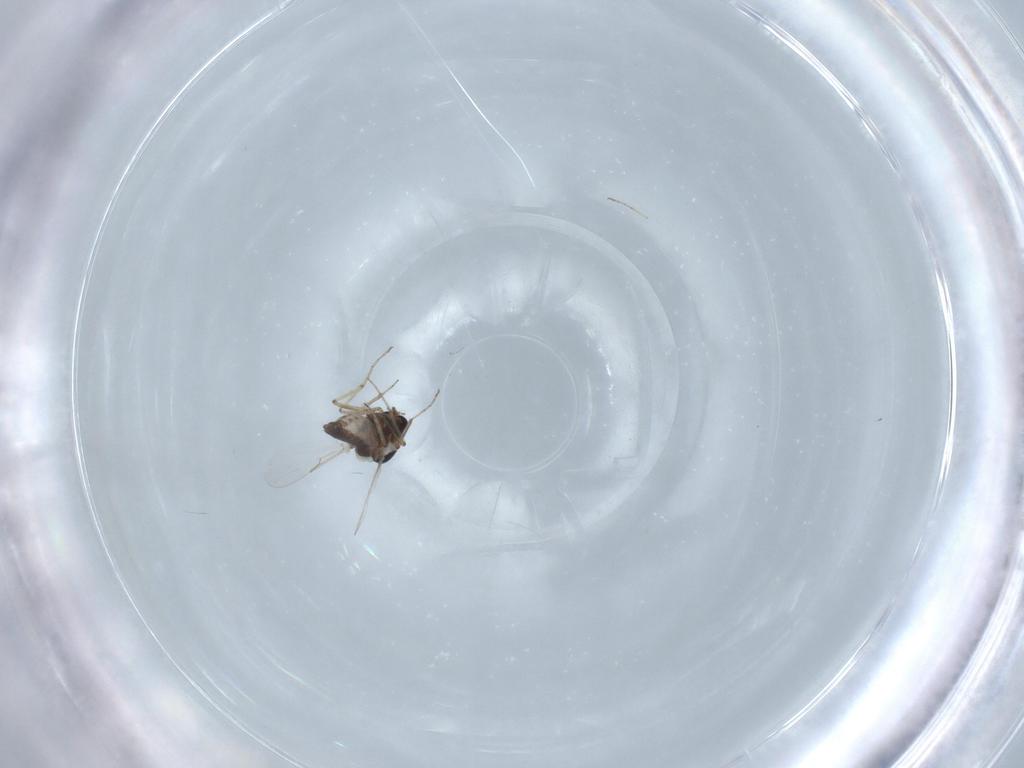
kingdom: Animalia
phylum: Arthropoda
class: Insecta
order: Diptera
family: Ceratopogonidae
